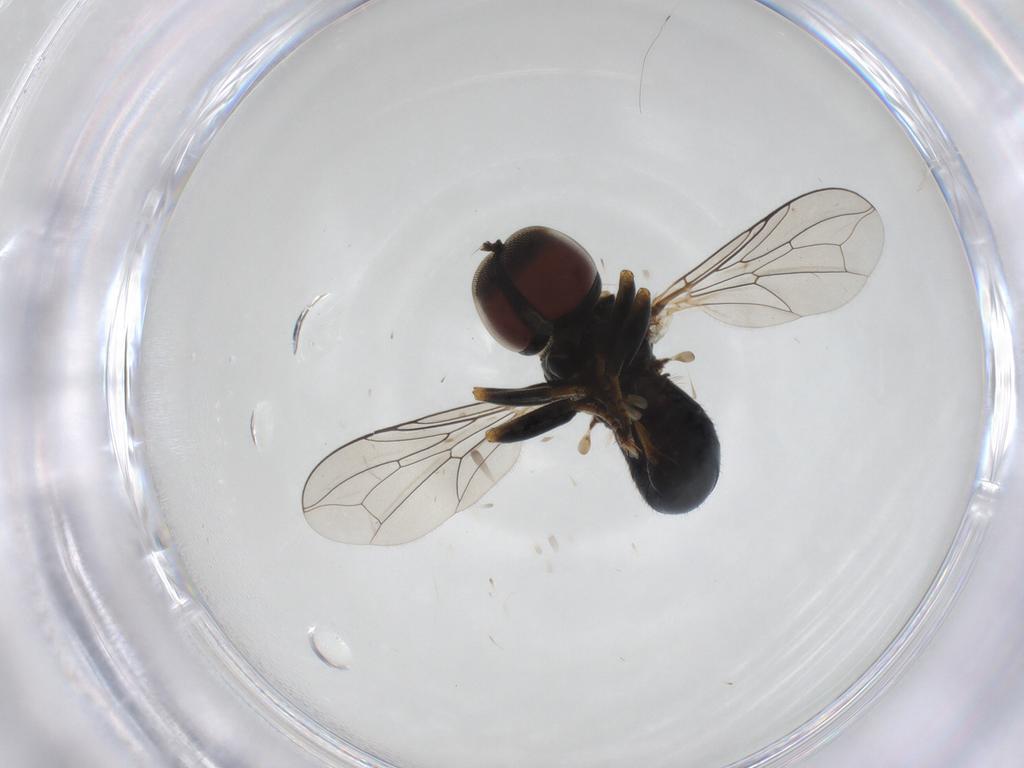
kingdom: Animalia
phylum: Arthropoda
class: Insecta
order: Diptera
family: Pipunculidae
